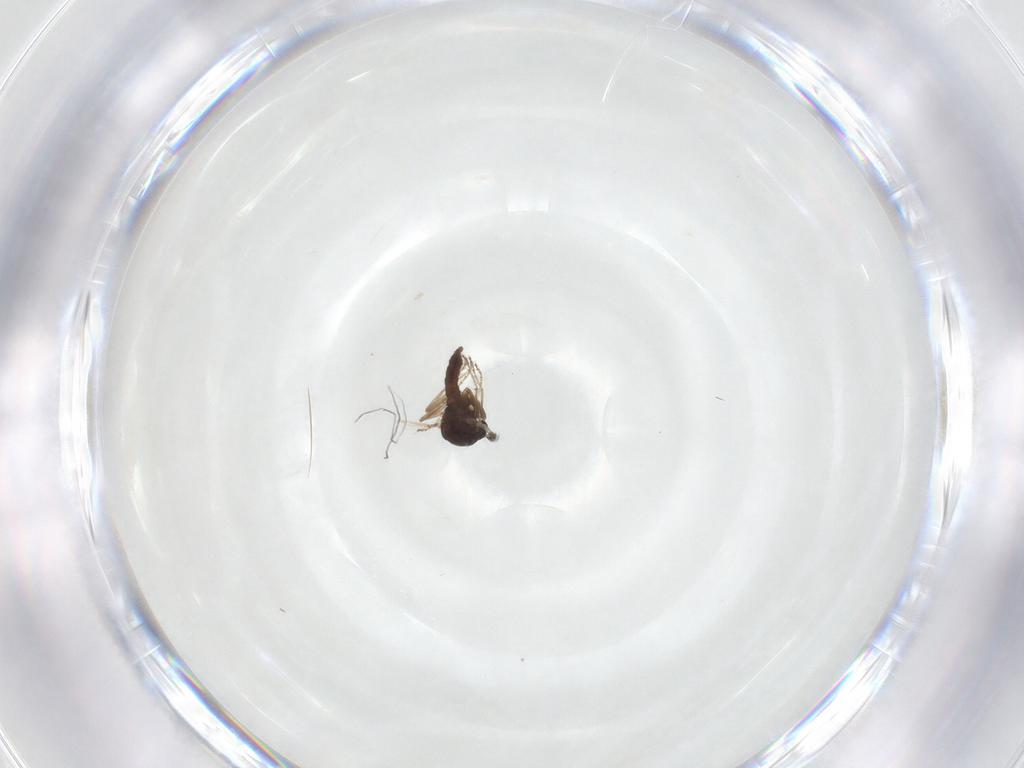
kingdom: Animalia
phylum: Arthropoda
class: Insecta
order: Diptera
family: Ceratopogonidae
